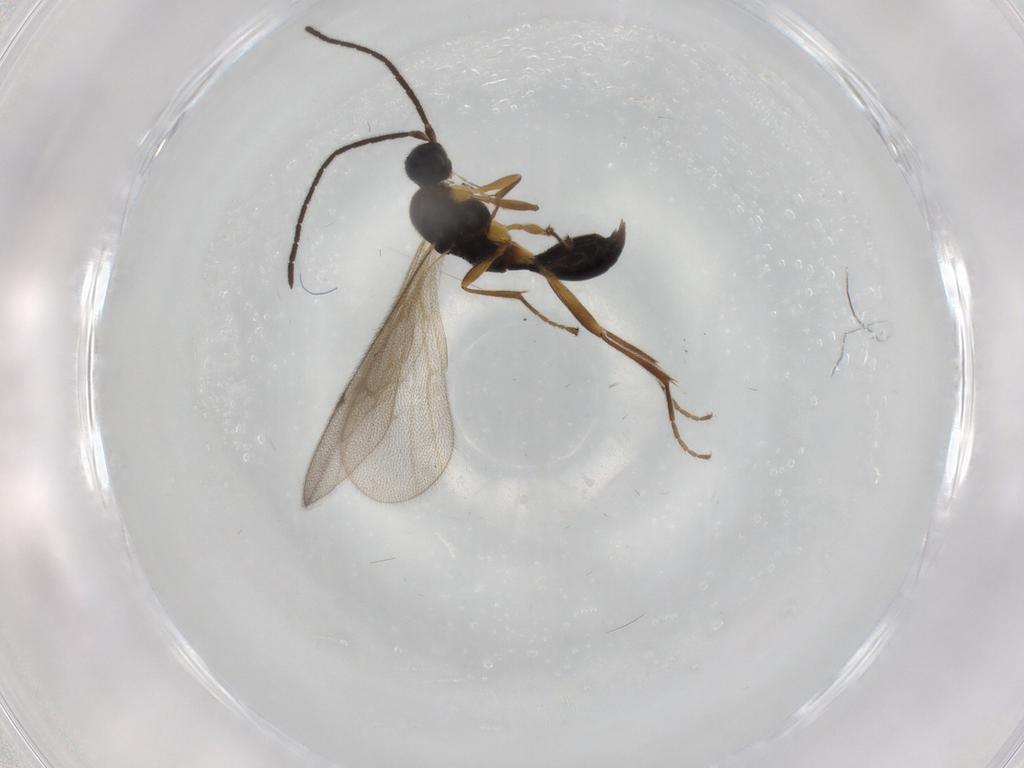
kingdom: Animalia
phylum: Arthropoda
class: Insecta
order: Hymenoptera
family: Proctotrupidae
